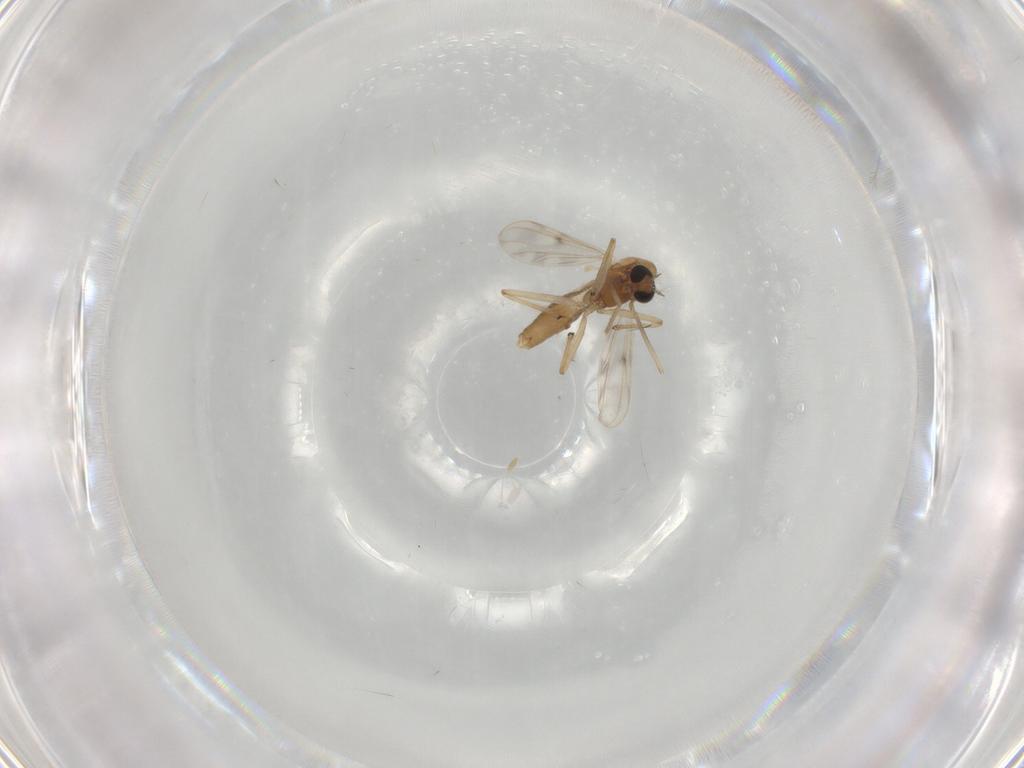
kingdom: Animalia
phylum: Arthropoda
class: Insecta
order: Diptera
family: Chironomidae
